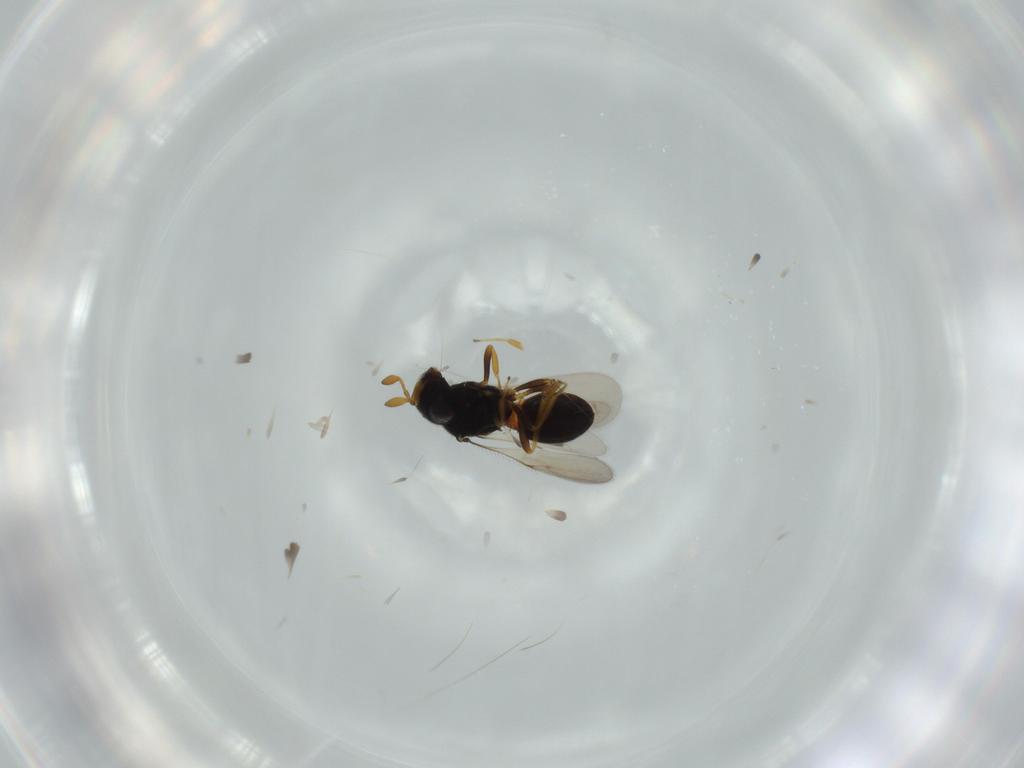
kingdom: Animalia
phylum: Arthropoda
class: Insecta
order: Hymenoptera
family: Scelionidae
